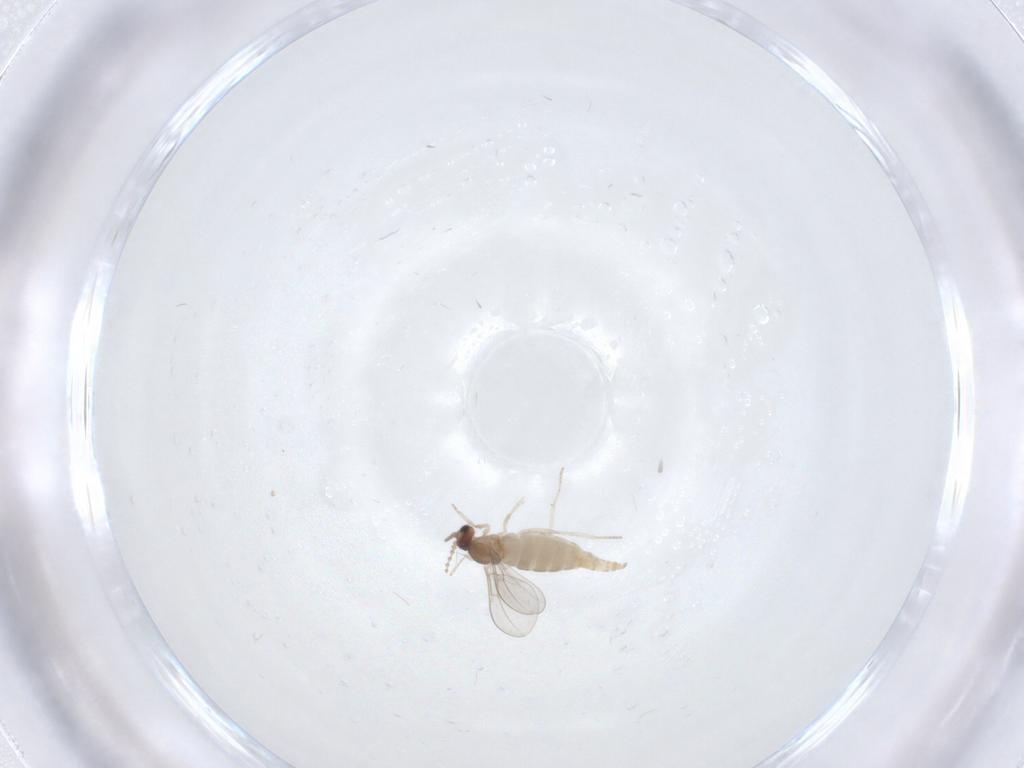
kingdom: Animalia
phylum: Arthropoda
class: Insecta
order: Diptera
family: Cecidomyiidae
